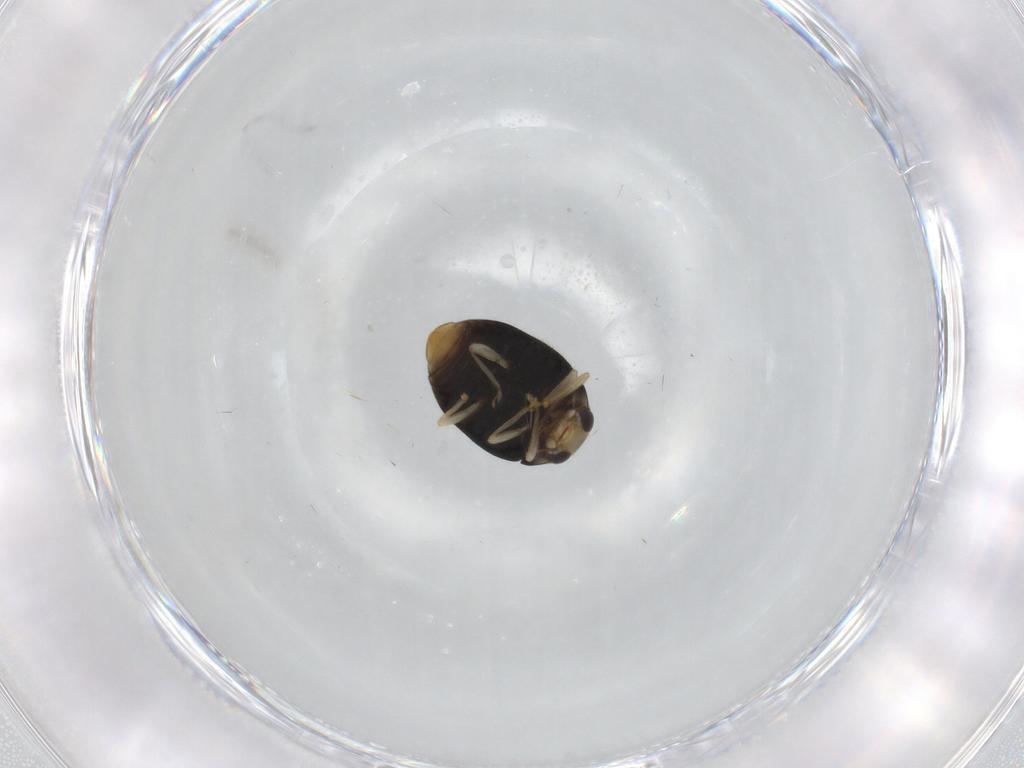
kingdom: Animalia
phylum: Arthropoda
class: Insecta
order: Coleoptera
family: Coccinellidae
